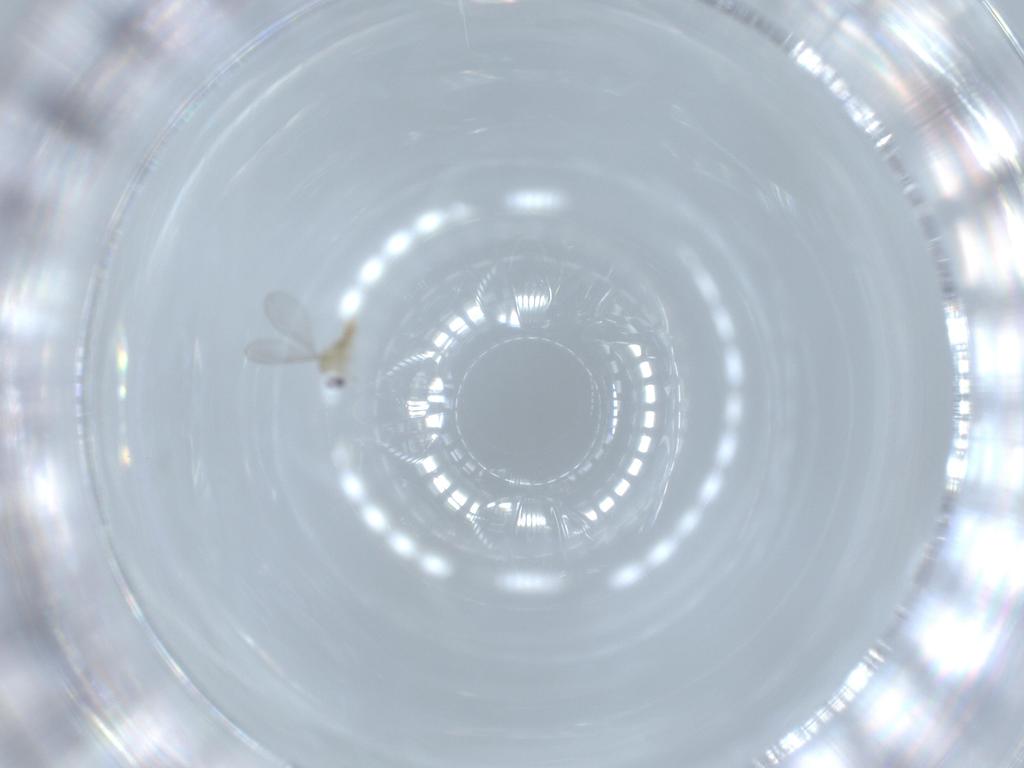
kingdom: Animalia
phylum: Arthropoda
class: Insecta
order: Diptera
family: Cecidomyiidae
